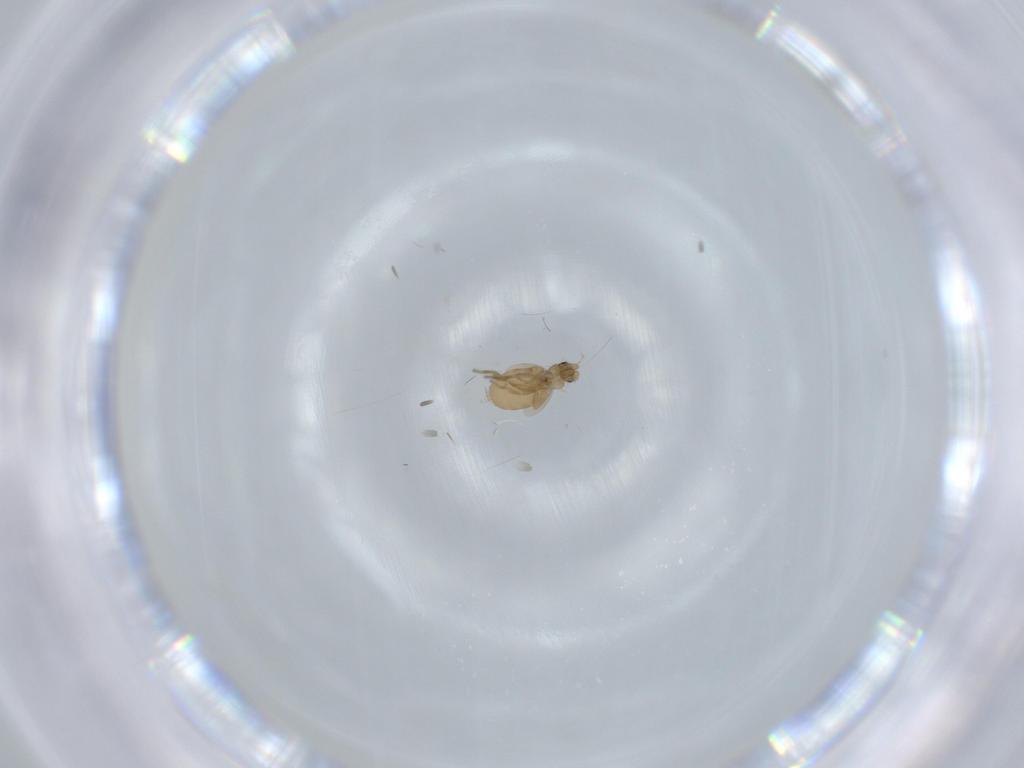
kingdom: Animalia
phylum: Arthropoda
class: Insecta
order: Diptera
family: Phoridae
